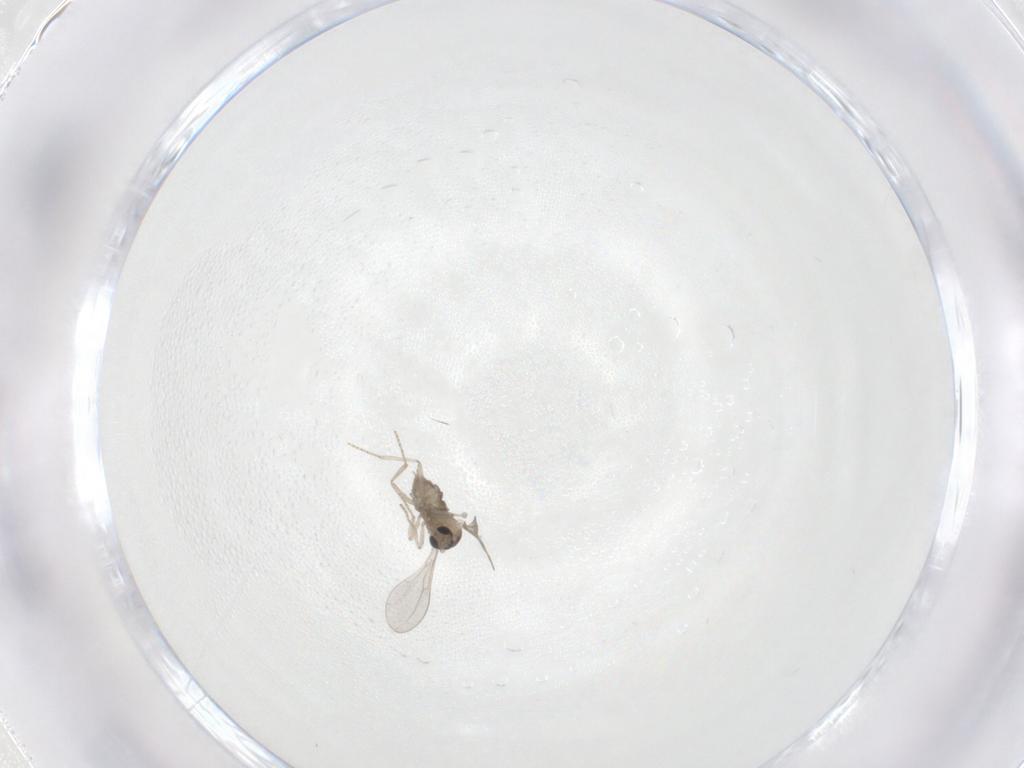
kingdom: Animalia
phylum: Arthropoda
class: Insecta
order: Diptera
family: Cecidomyiidae
